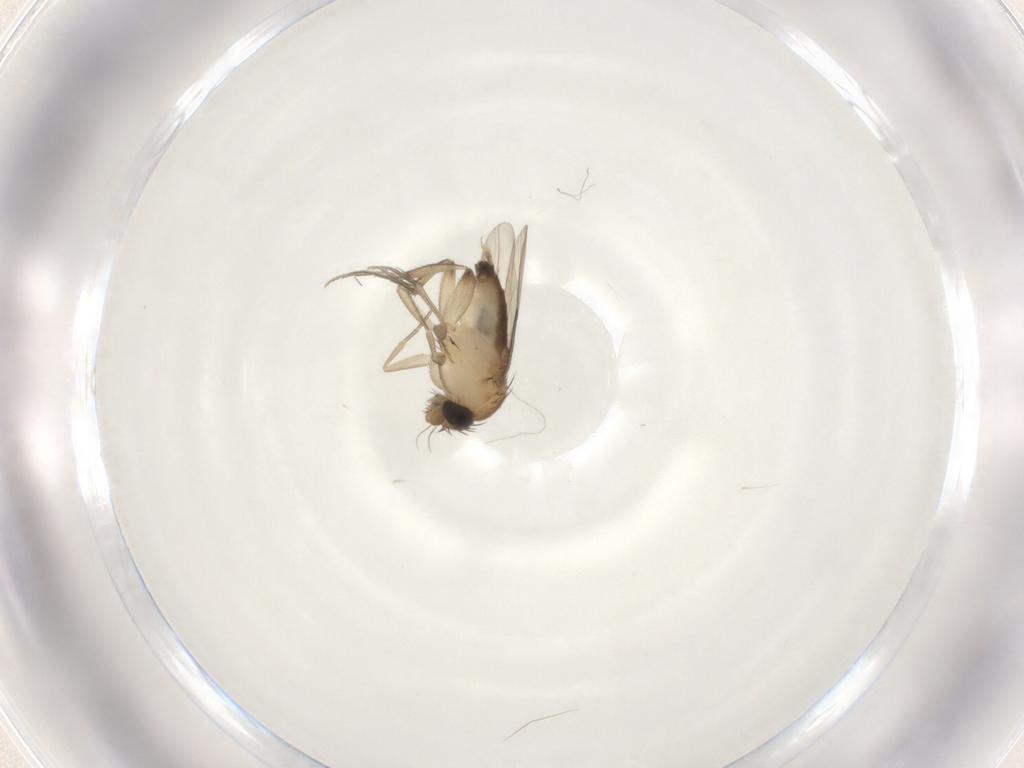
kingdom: Animalia
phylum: Arthropoda
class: Insecta
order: Diptera
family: Phoridae
